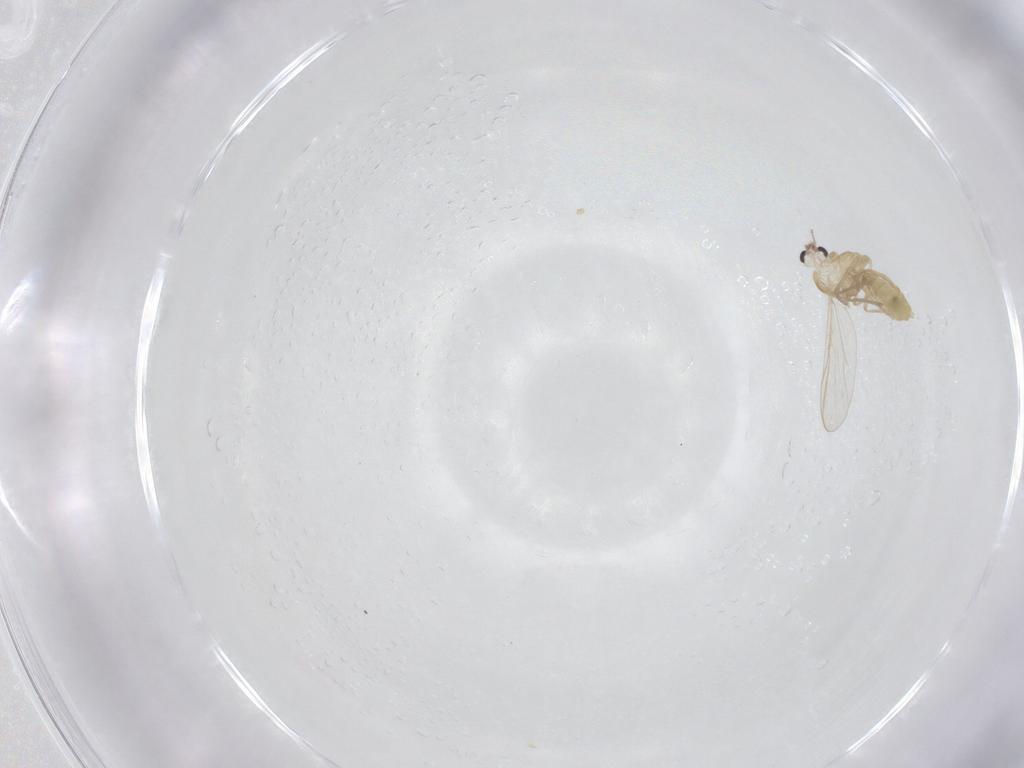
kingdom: Animalia
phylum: Arthropoda
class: Insecta
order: Diptera
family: Chironomidae
